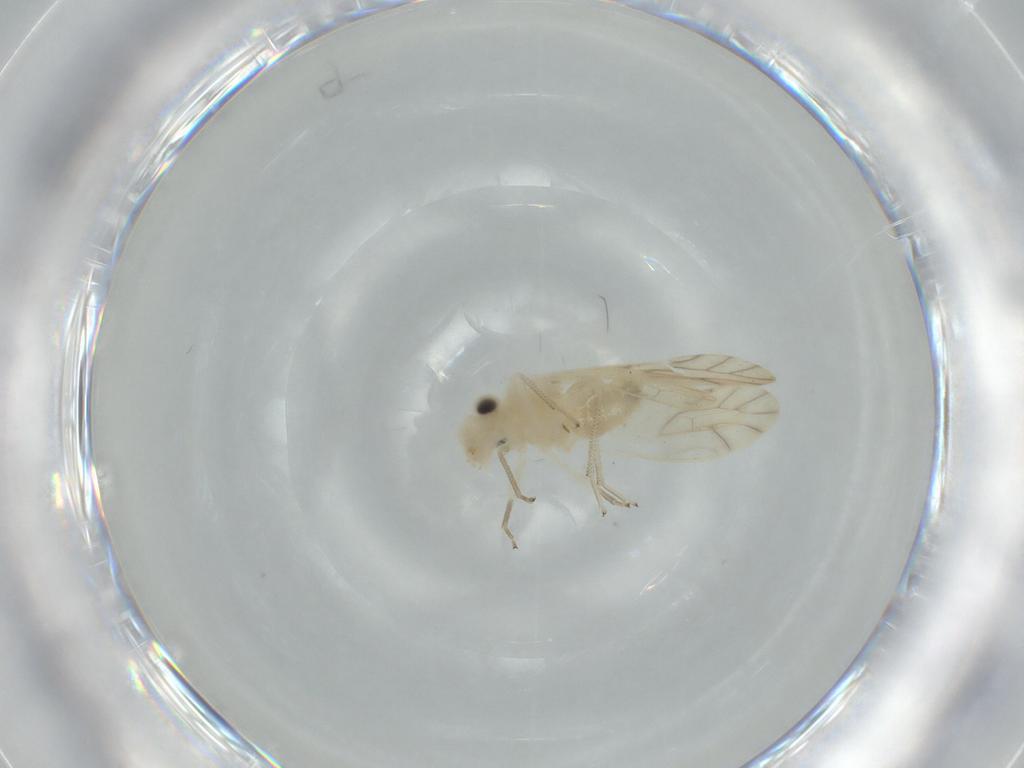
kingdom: Animalia
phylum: Arthropoda
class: Insecta
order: Psocodea
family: Caeciliusidae
